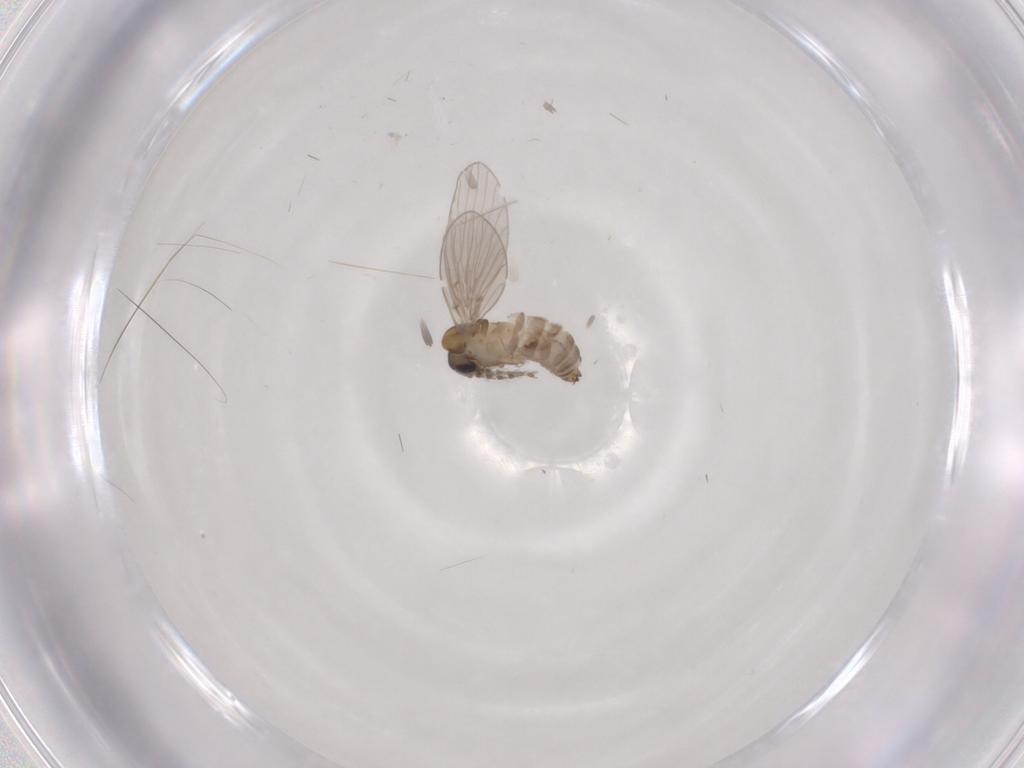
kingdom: Animalia
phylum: Arthropoda
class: Insecta
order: Diptera
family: Psychodidae
